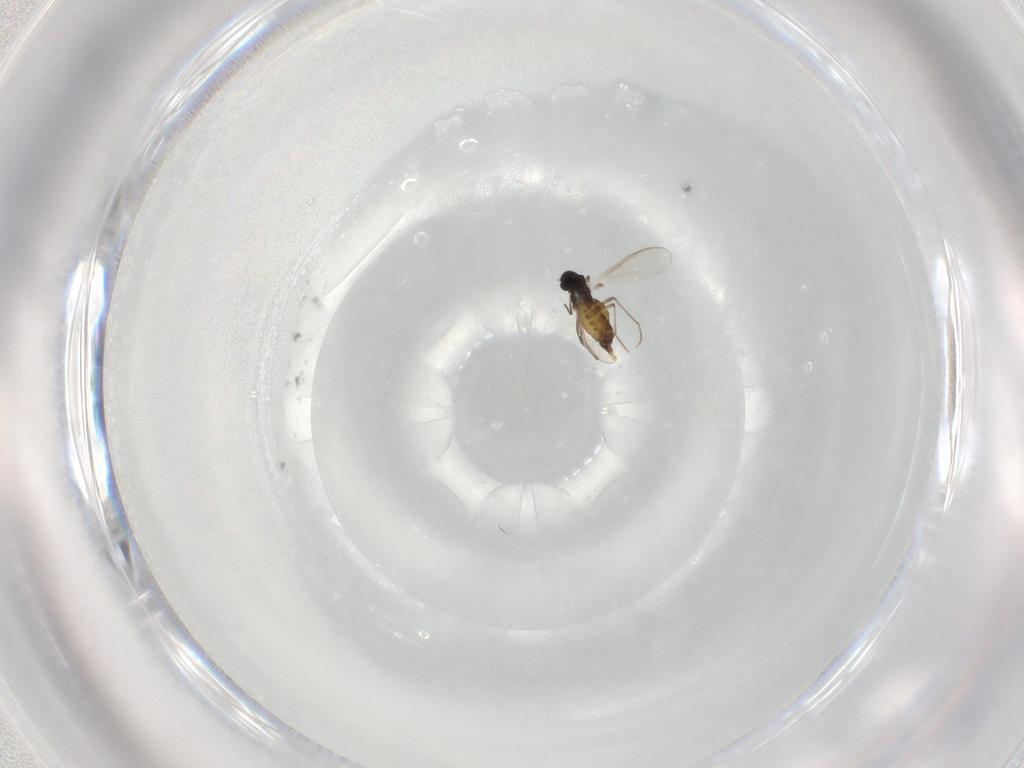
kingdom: Animalia
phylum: Arthropoda
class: Insecta
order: Diptera
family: Chironomidae
